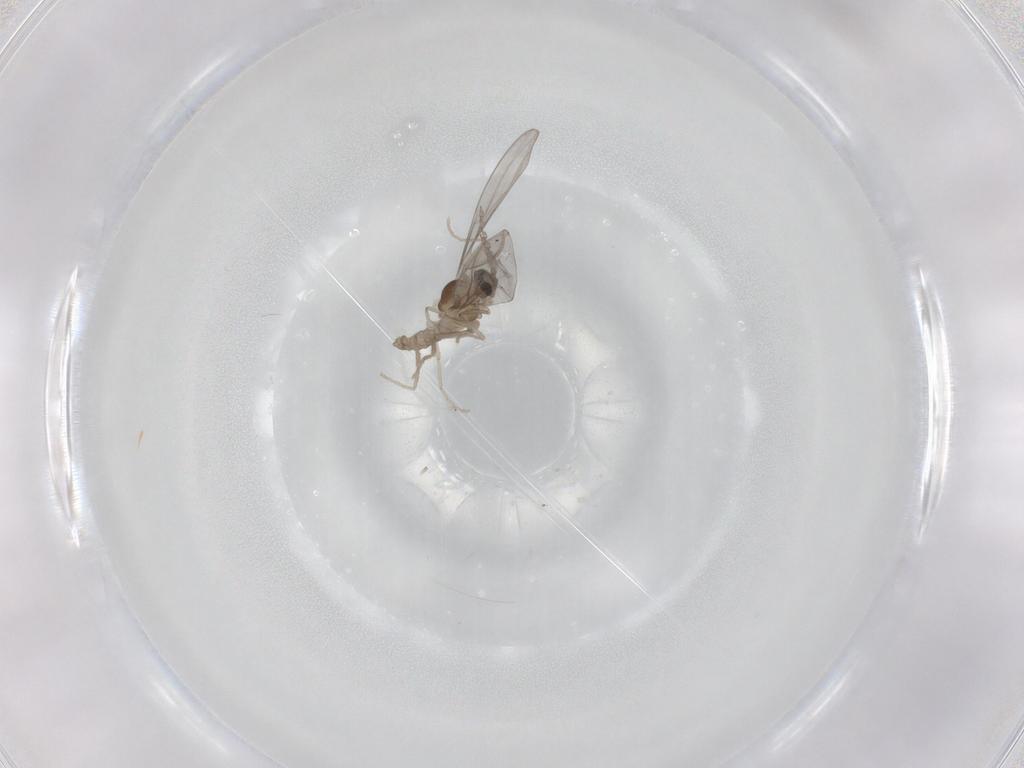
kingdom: Animalia
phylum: Arthropoda
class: Insecta
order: Diptera
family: Cecidomyiidae
